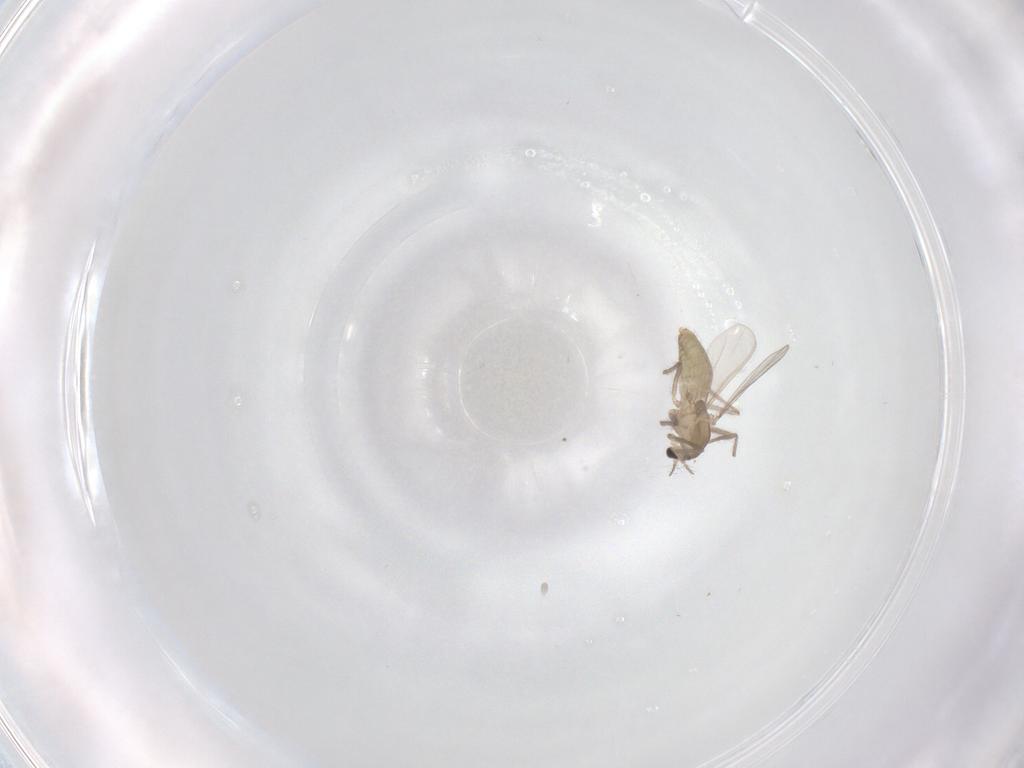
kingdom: Animalia
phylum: Arthropoda
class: Insecta
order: Diptera
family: Chironomidae
